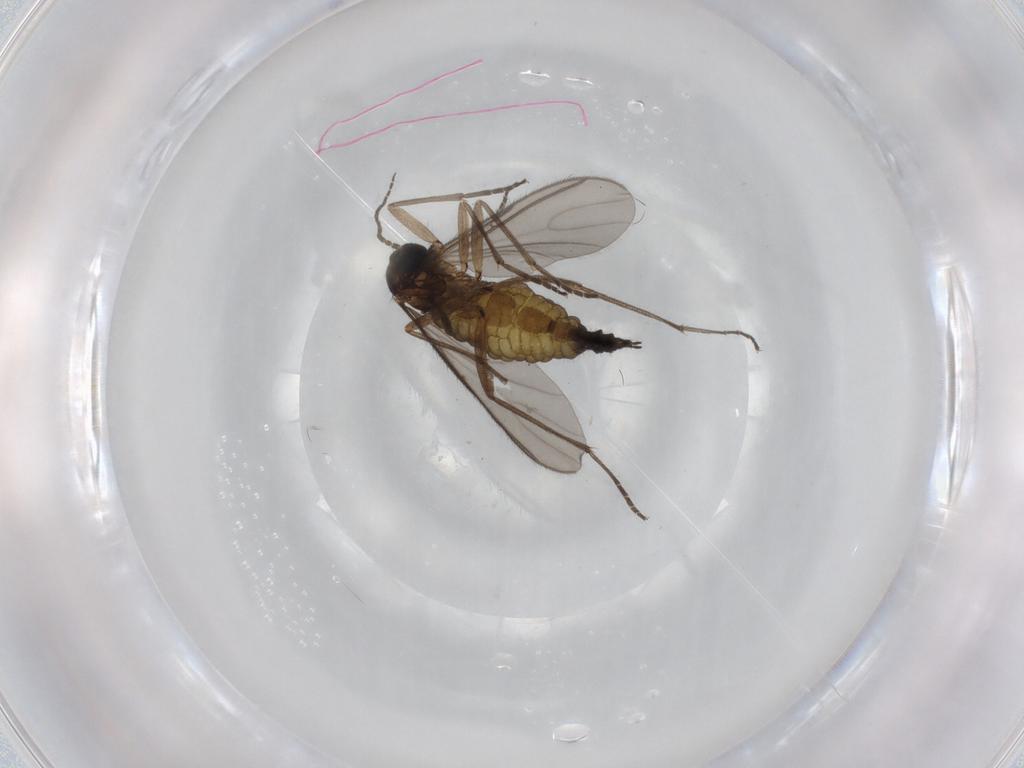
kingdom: Animalia
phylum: Arthropoda
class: Insecta
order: Diptera
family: Sciaridae
